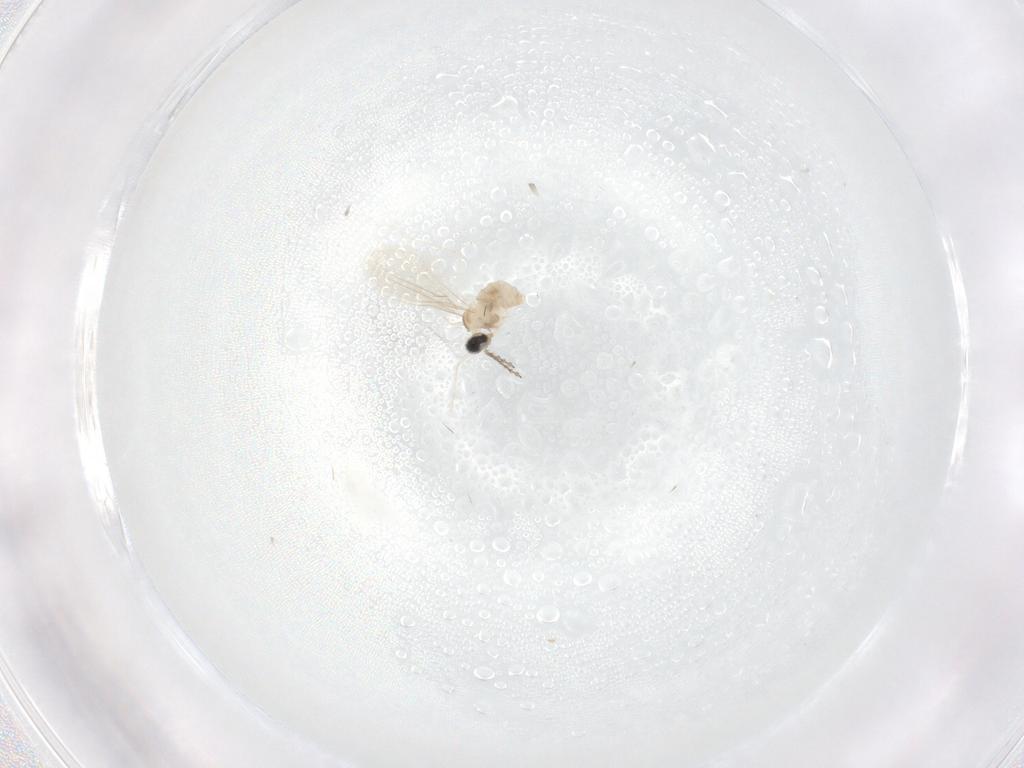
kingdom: Animalia
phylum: Arthropoda
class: Insecta
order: Diptera
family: Cecidomyiidae
